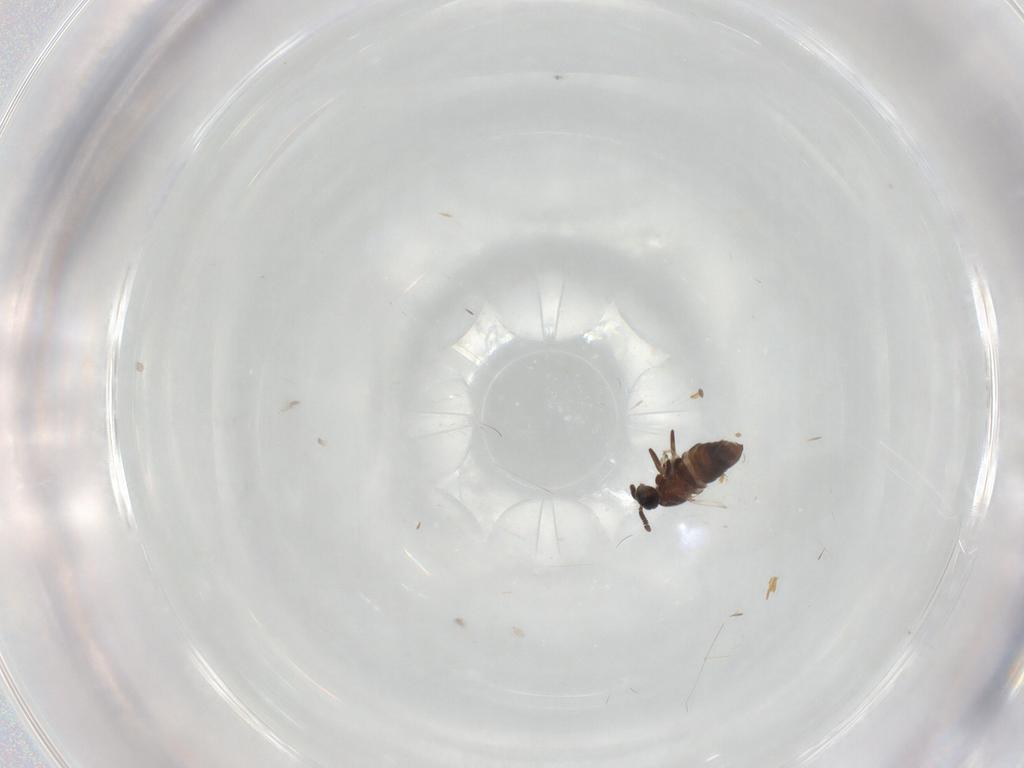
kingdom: Animalia
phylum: Arthropoda
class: Insecta
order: Diptera
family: Scatopsidae
